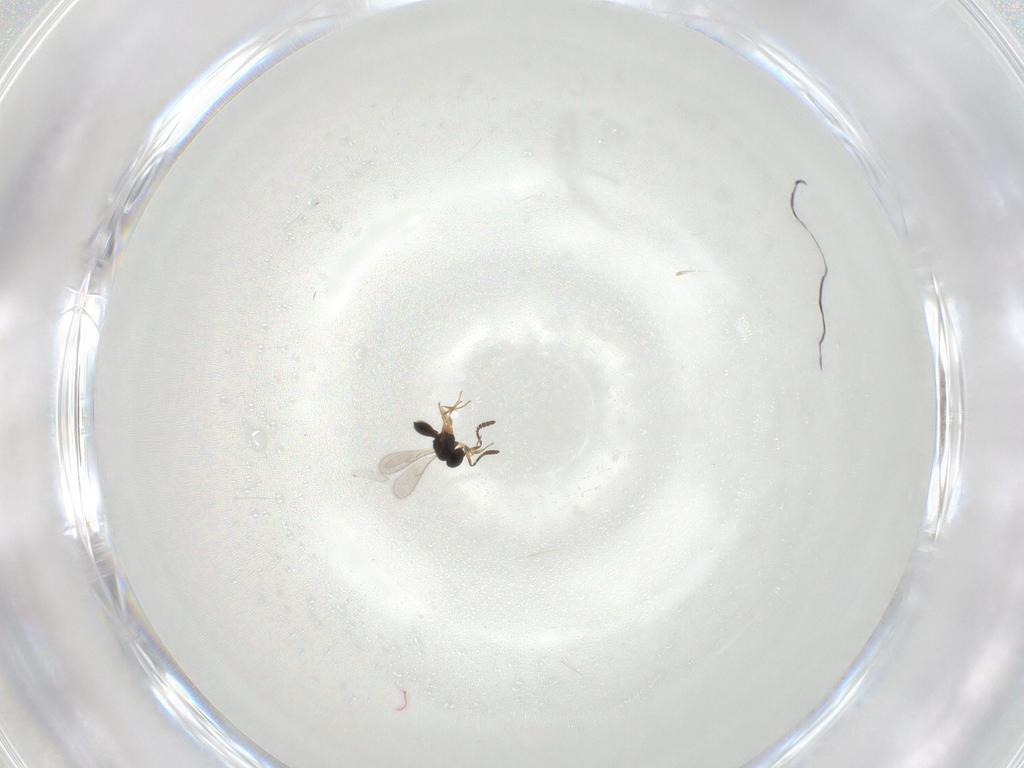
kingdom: Animalia
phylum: Arthropoda
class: Insecta
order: Hymenoptera
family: Scelionidae
